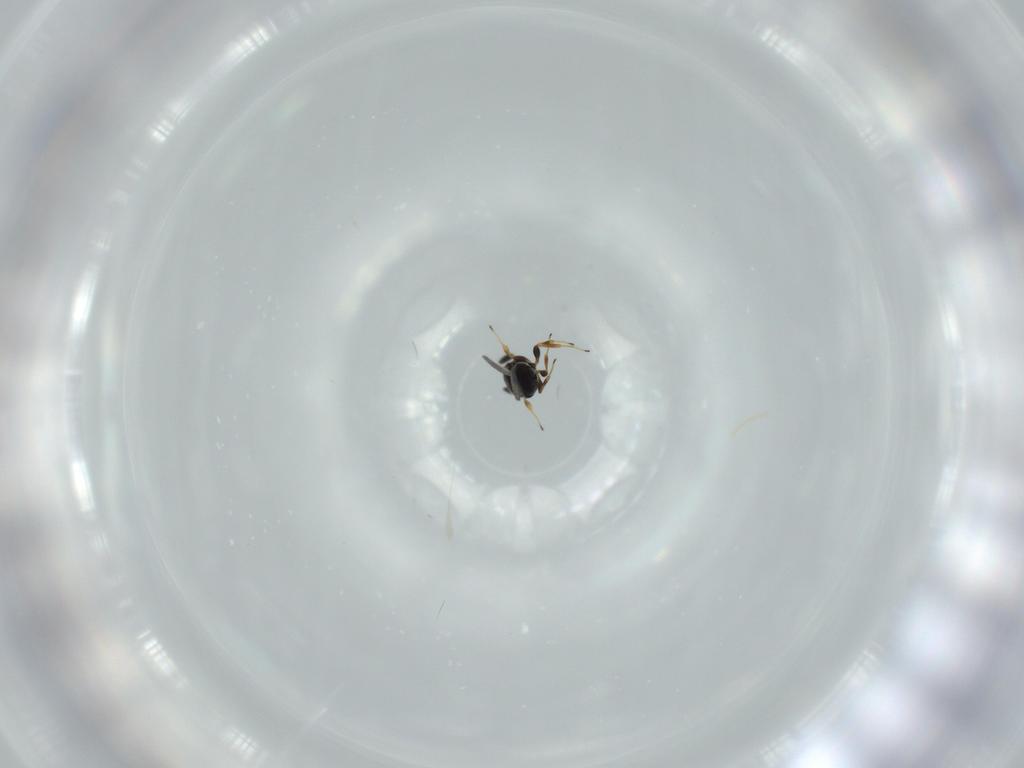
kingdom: Animalia
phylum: Arthropoda
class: Insecta
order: Hymenoptera
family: Scelionidae
